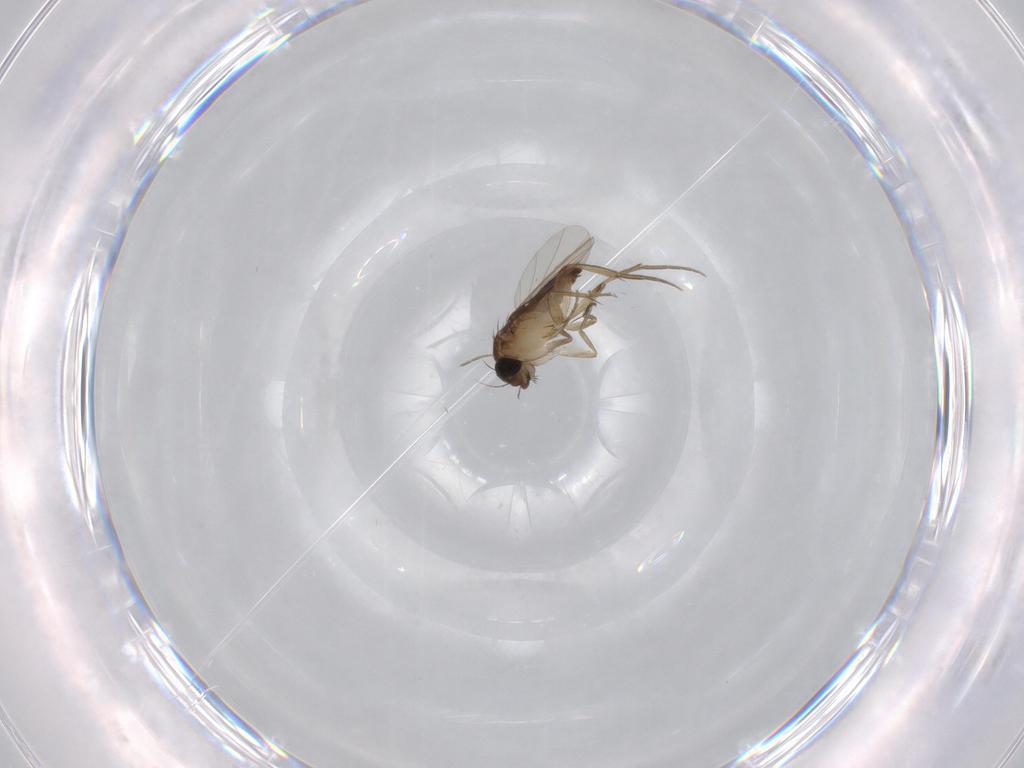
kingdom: Animalia
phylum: Arthropoda
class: Insecta
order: Diptera
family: Phoridae
